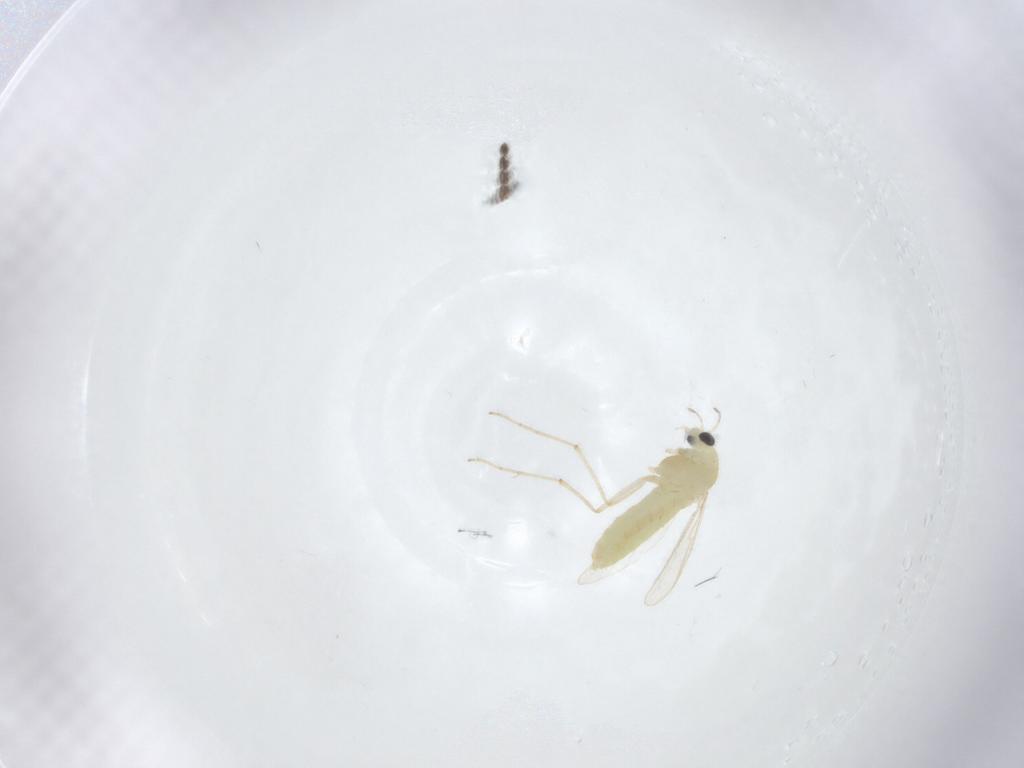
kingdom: Animalia
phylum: Arthropoda
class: Insecta
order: Diptera
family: Chironomidae
